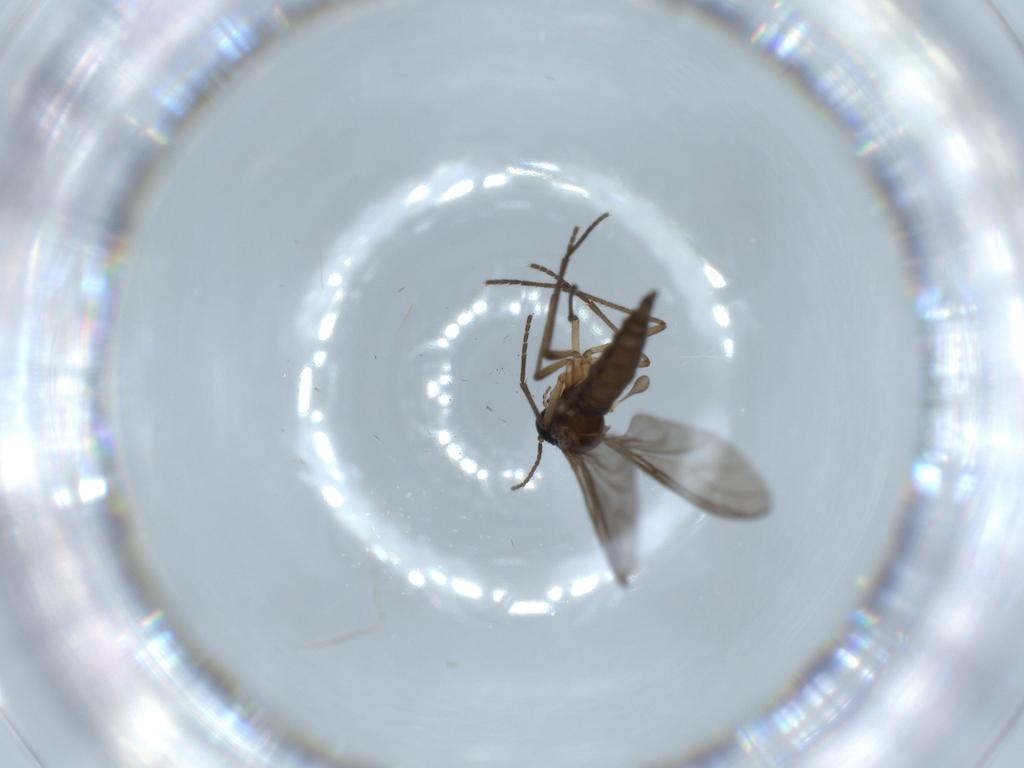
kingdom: Animalia
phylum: Arthropoda
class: Insecta
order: Diptera
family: Sciaridae
